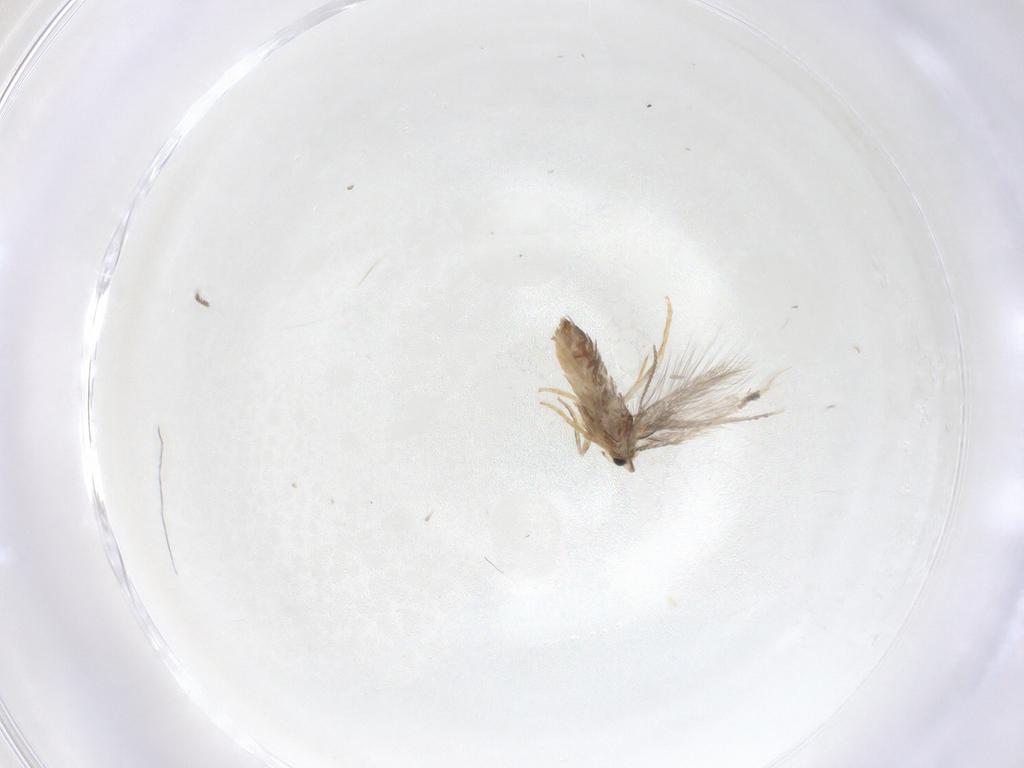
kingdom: Animalia
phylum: Arthropoda
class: Insecta
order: Lepidoptera
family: Nepticulidae
